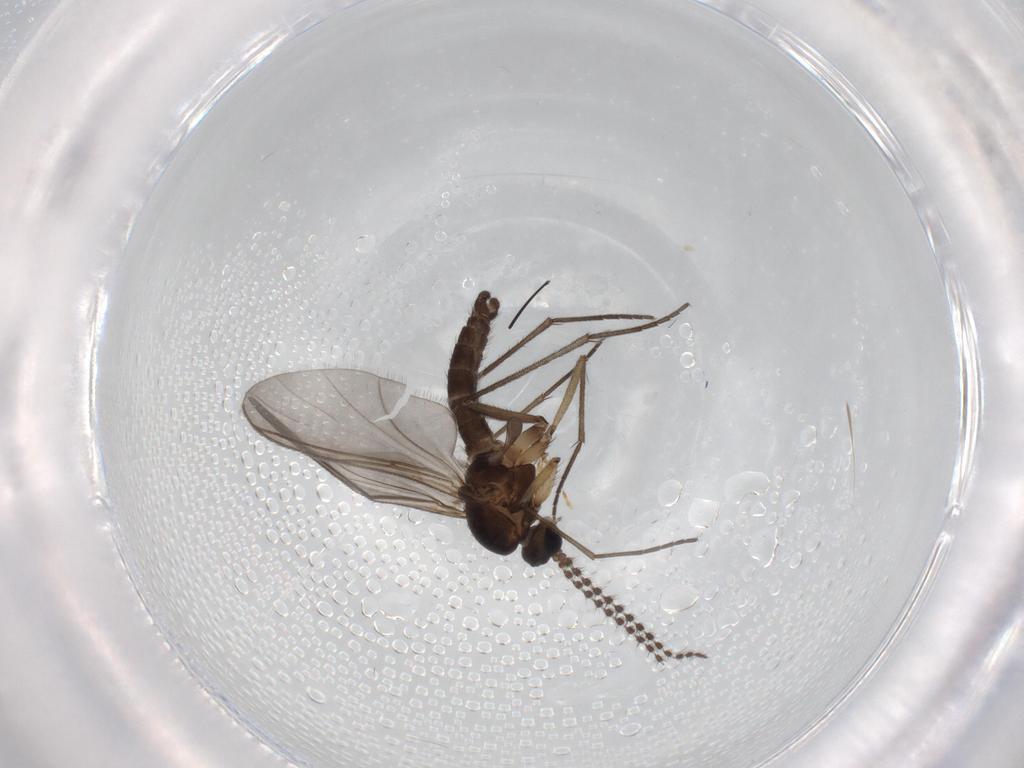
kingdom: Animalia
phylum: Arthropoda
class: Insecta
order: Diptera
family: Sciaridae
